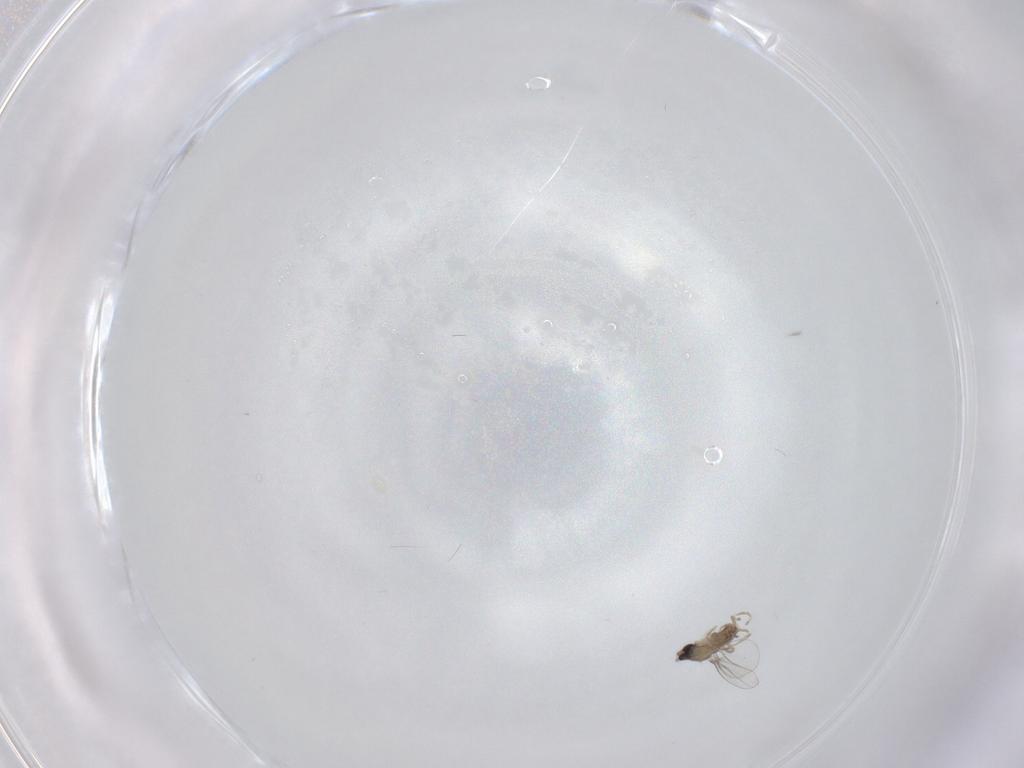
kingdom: Animalia
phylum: Arthropoda
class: Insecta
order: Diptera
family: Cecidomyiidae
